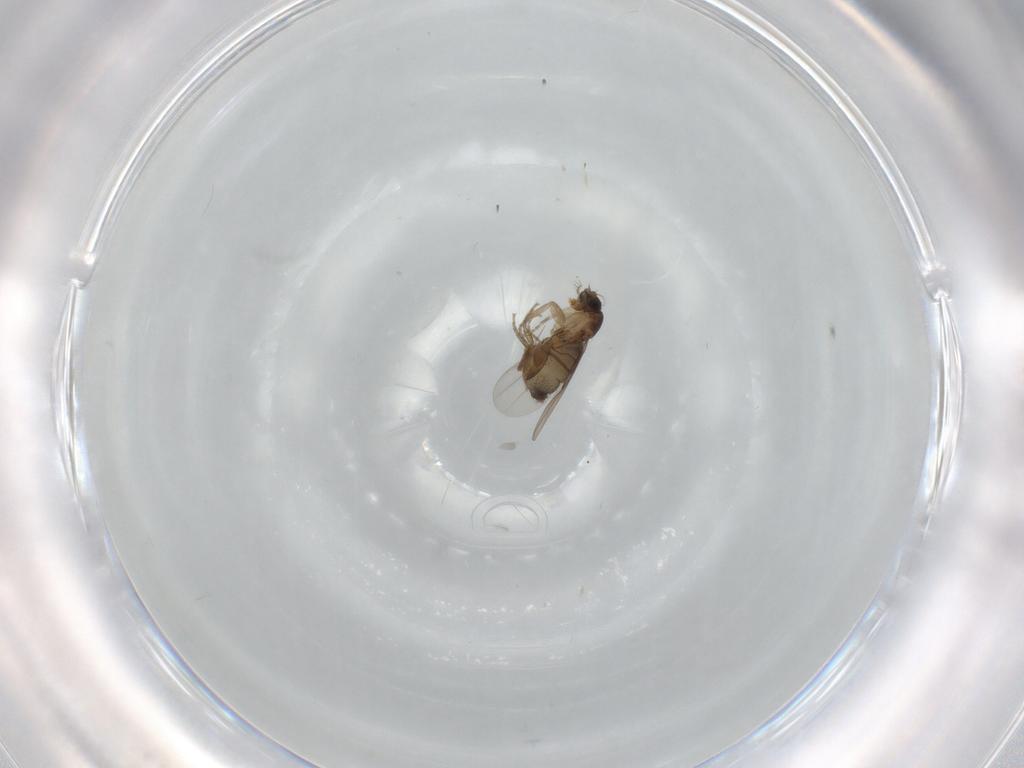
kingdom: Animalia
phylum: Arthropoda
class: Insecta
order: Diptera
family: Phoridae
